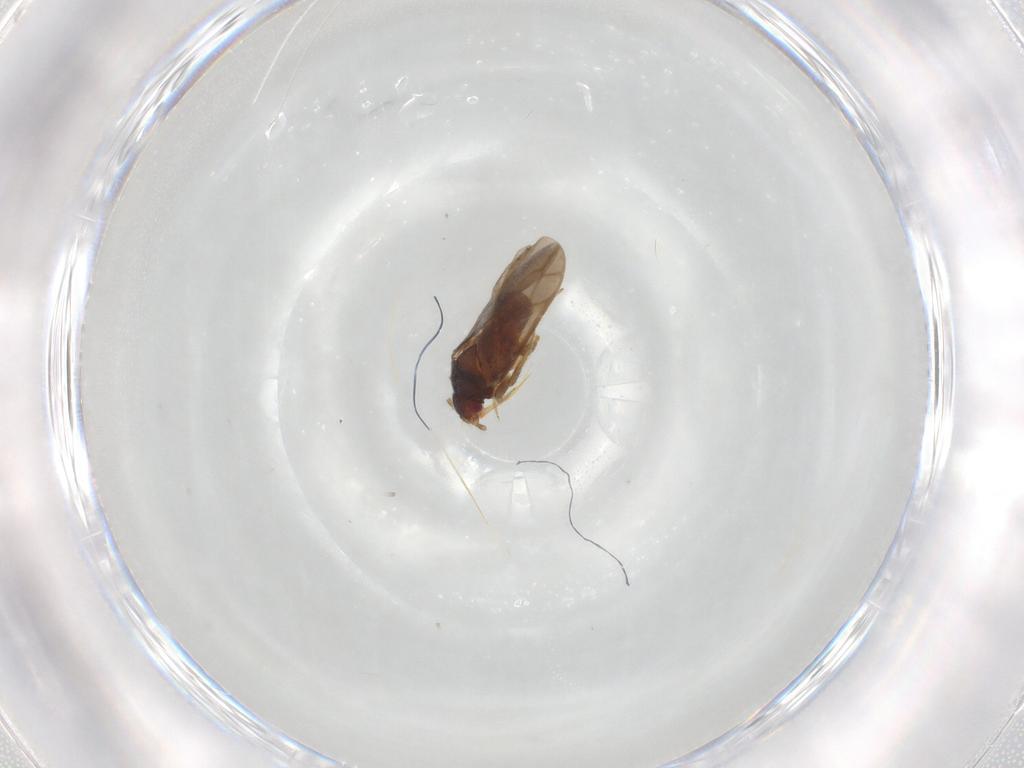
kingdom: Animalia
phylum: Arthropoda
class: Insecta
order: Hemiptera
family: Ceratocombidae
